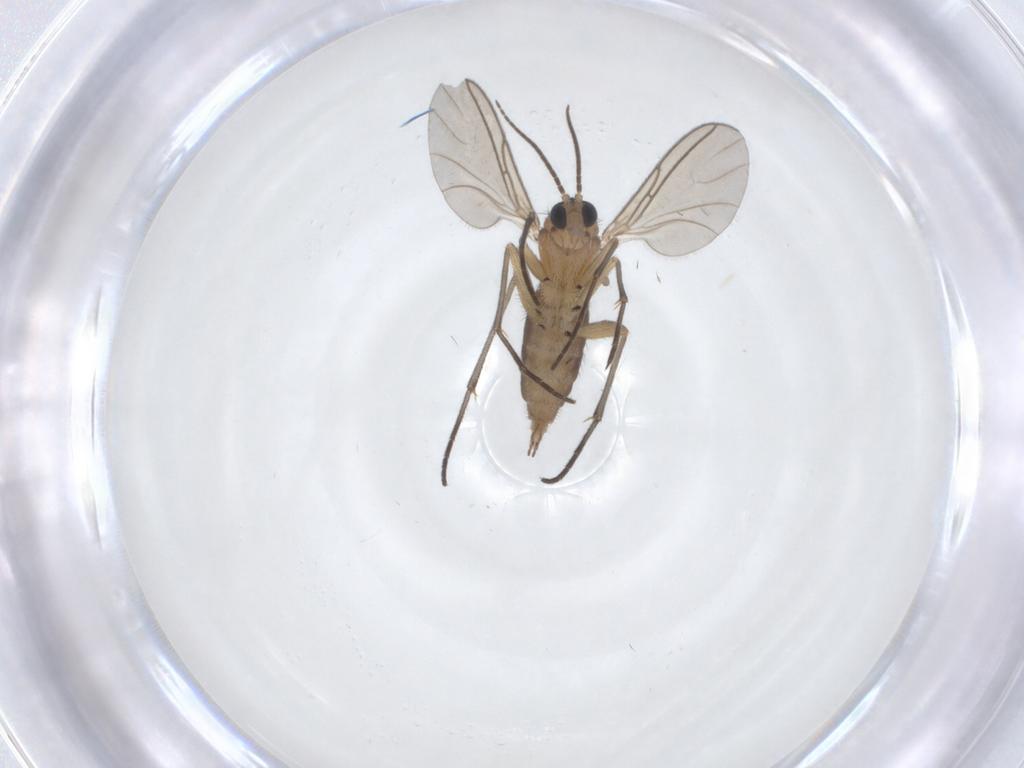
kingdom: Animalia
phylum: Arthropoda
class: Insecta
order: Diptera
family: Sciaridae
